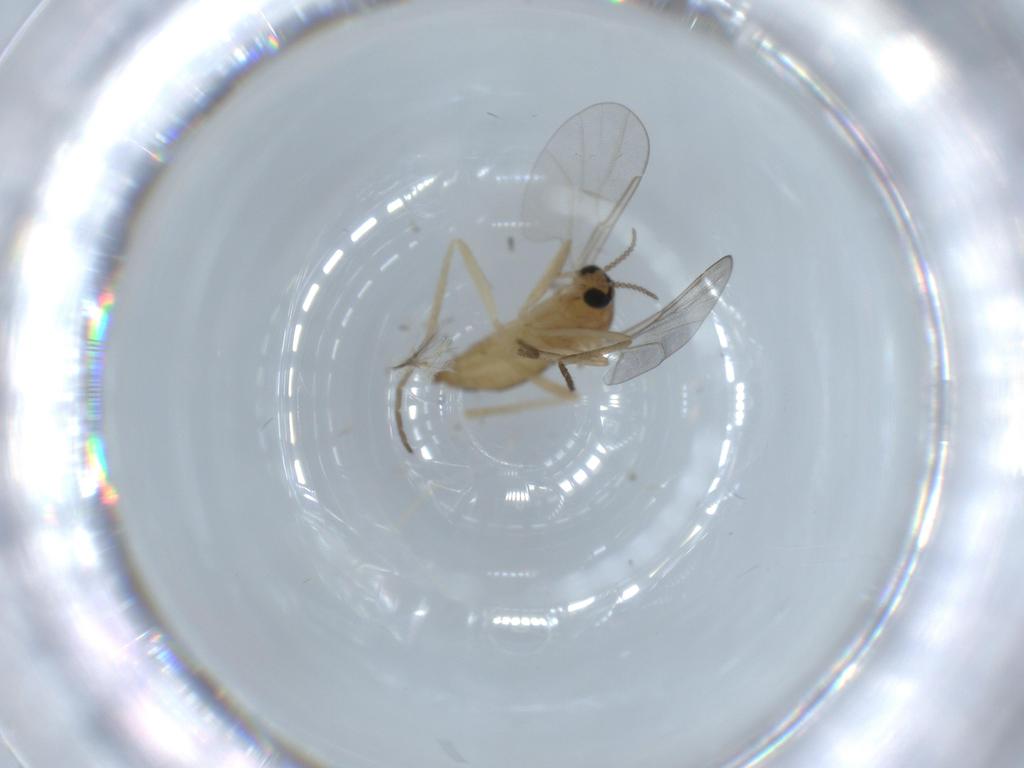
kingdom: Animalia
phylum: Arthropoda
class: Insecta
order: Diptera
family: Cecidomyiidae
